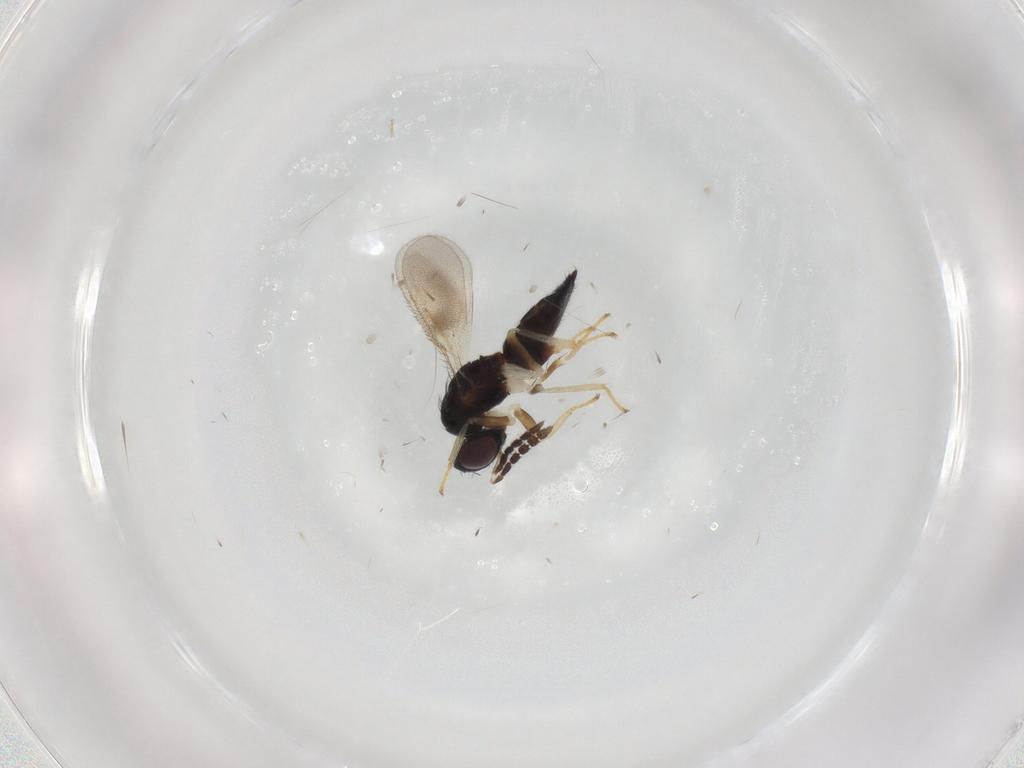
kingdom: Animalia
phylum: Arthropoda
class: Insecta
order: Hymenoptera
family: Eulophidae
